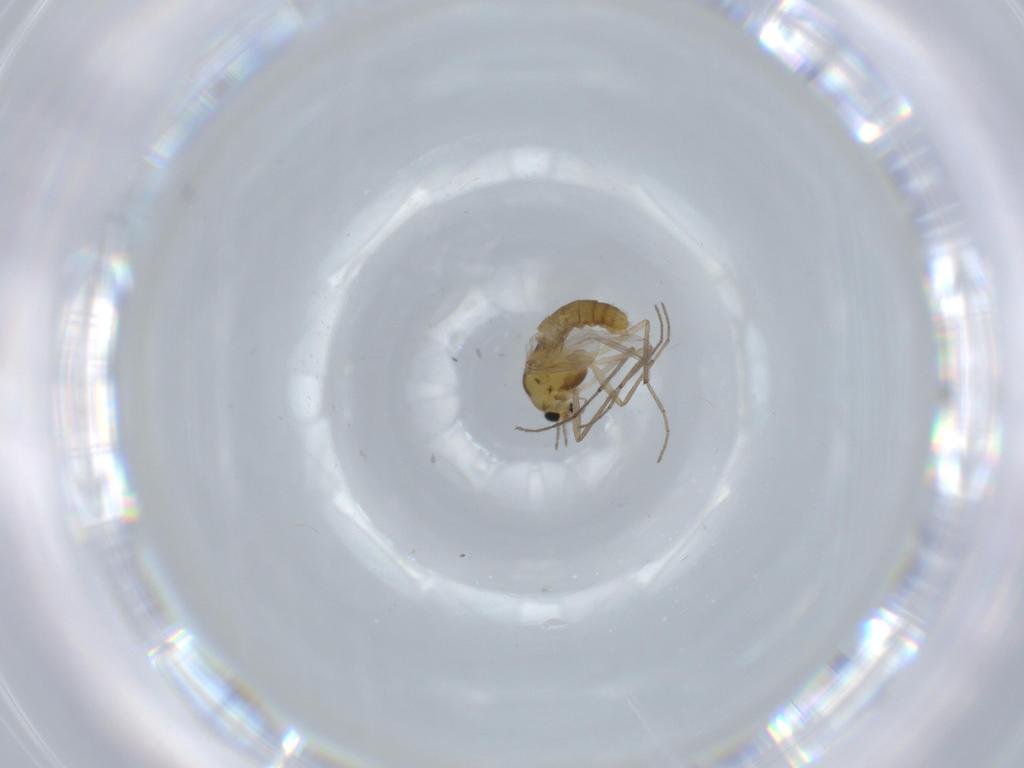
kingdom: Animalia
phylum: Arthropoda
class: Insecta
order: Diptera
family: Chironomidae
